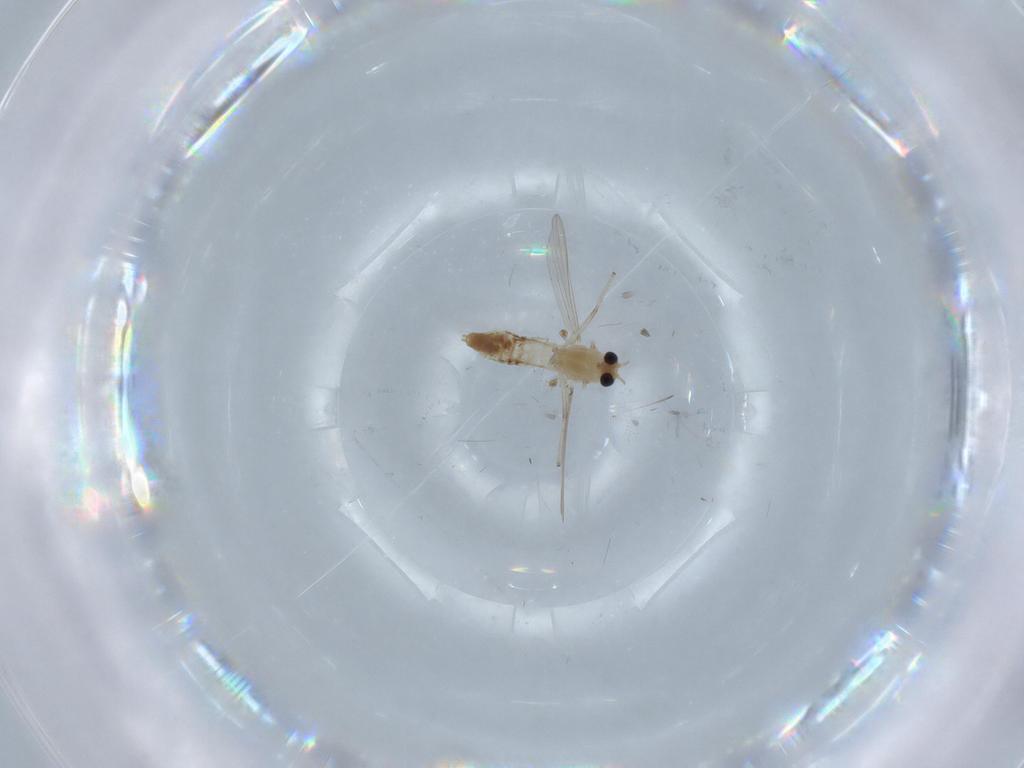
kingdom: Animalia
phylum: Arthropoda
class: Insecta
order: Diptera
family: Chironomidae
